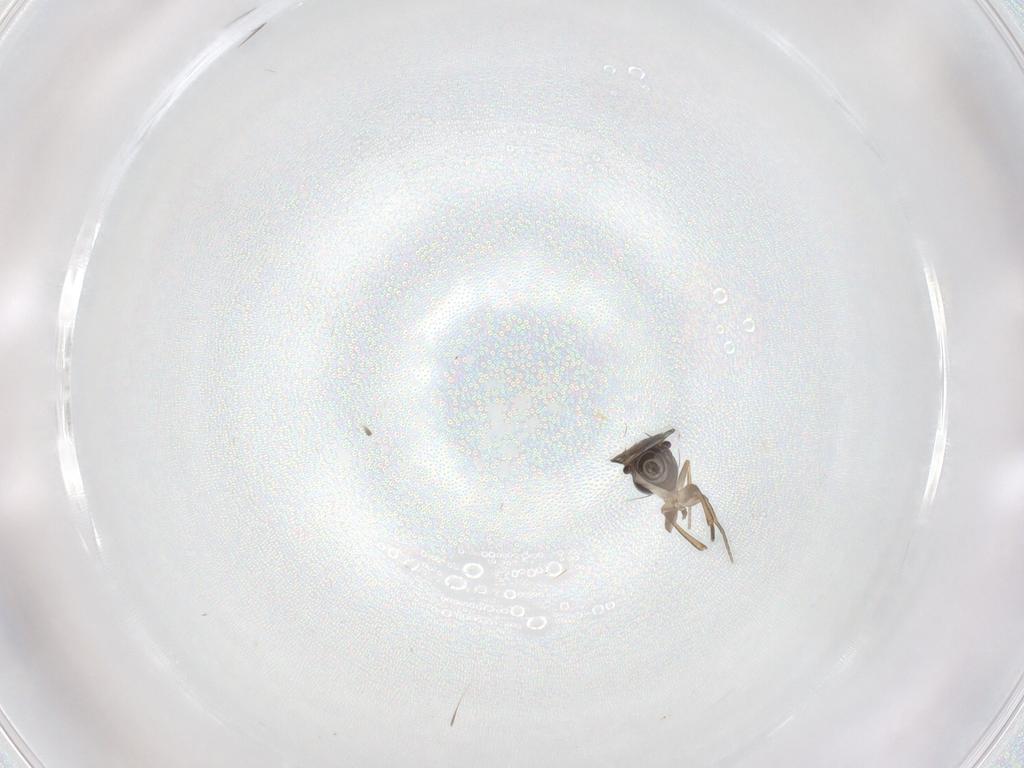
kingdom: Animalia
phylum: Arthropoda
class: Insecta
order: Diptera
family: Phoridae
